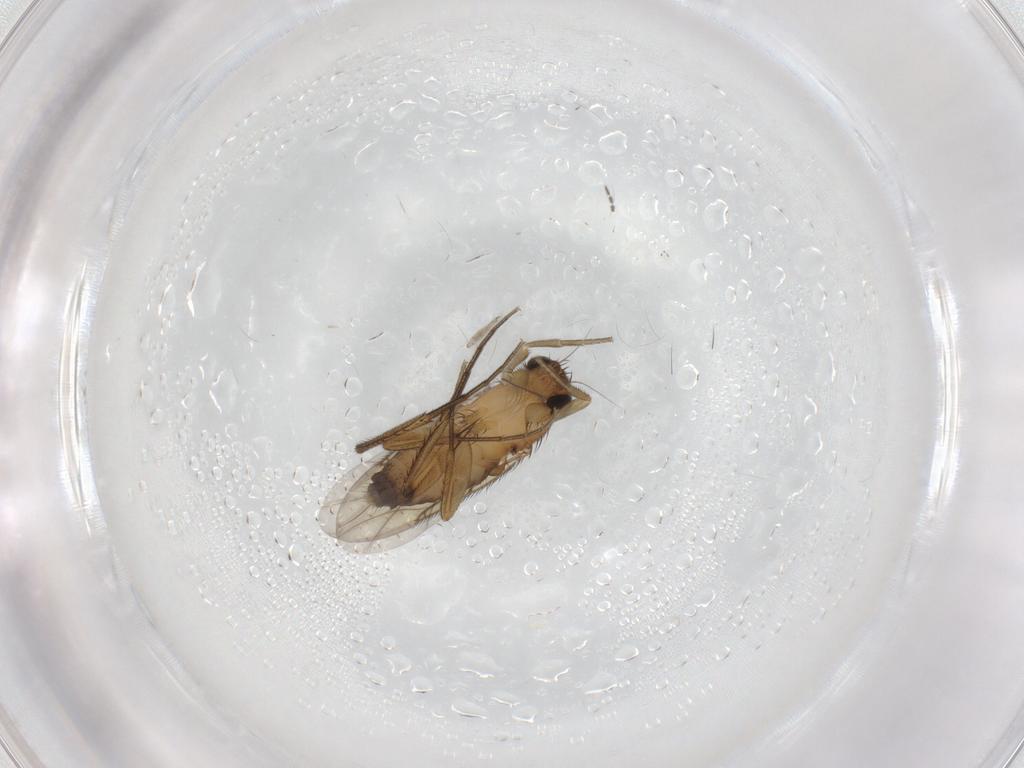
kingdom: Animalia
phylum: Arthropoda
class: Insecta
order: Diptera
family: Phoridae
